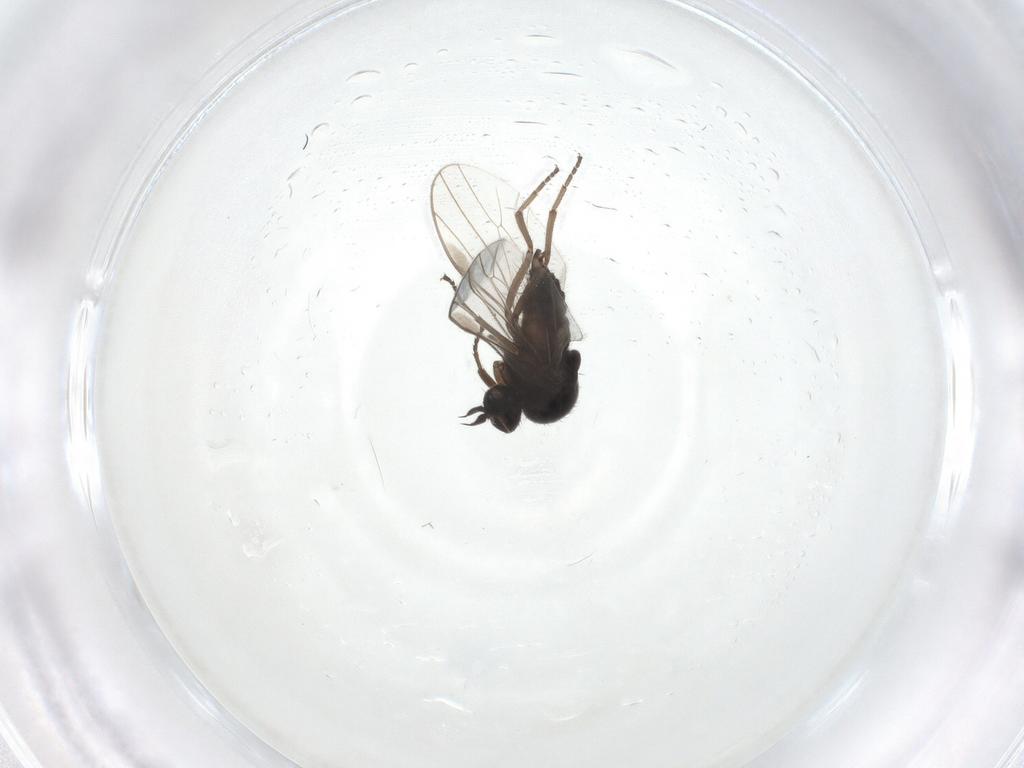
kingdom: Animalia
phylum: Arthropoda
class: Insecta
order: Diptera
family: Hybotidae
